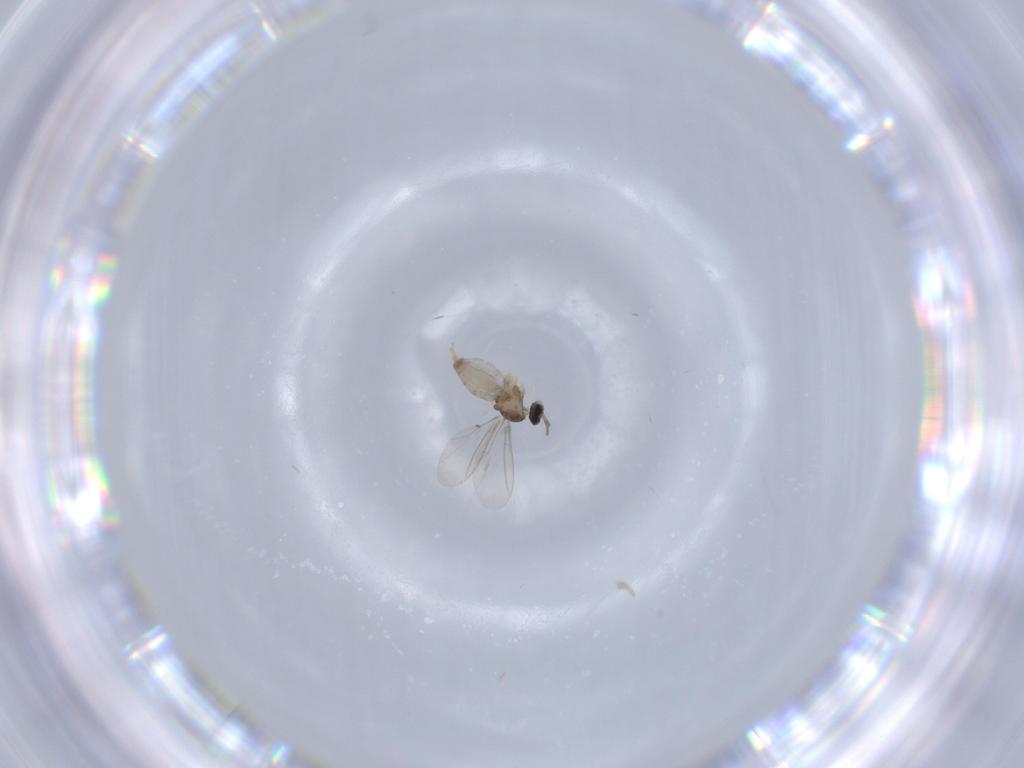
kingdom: Animalia
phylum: Arthropoda
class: Insecta
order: Diptera
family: Cecidomyiidae
